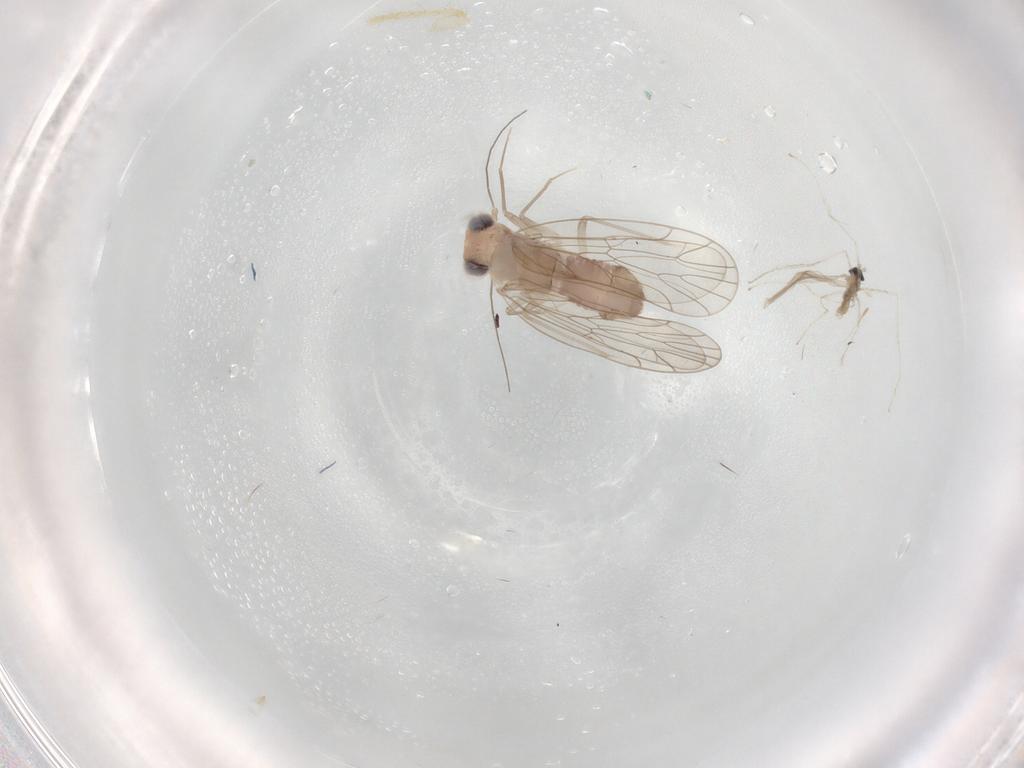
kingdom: Animalia
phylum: Arthropoda
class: Insecta
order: Psocodea
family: Amphientomidae
